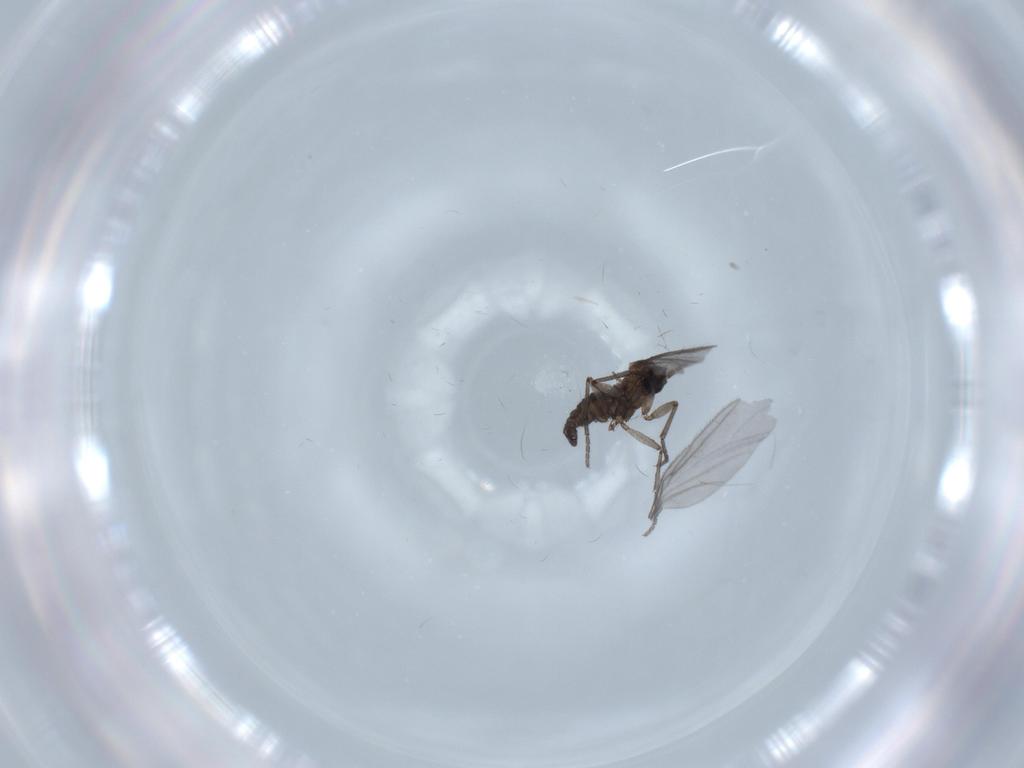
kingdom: Animalia
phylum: Arthropoda
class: Insecta
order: Diptera
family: Sciaridae
